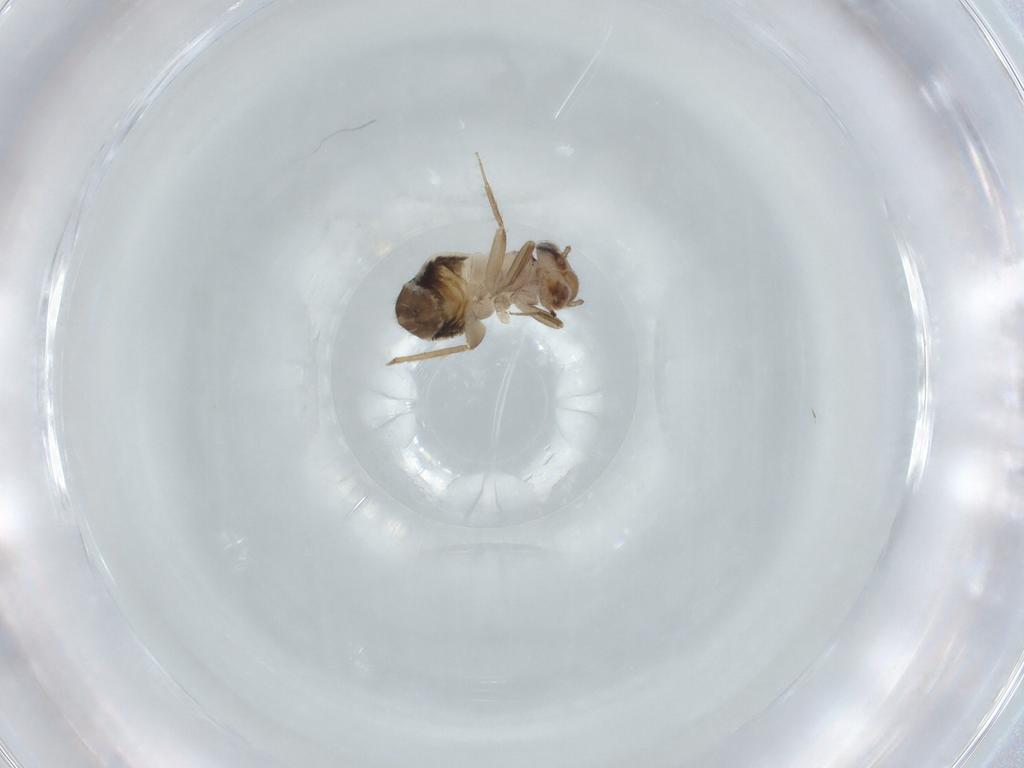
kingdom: Animalia
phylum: Arthropoda
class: Insecta
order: Psocodea
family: Lepidopsocidae
